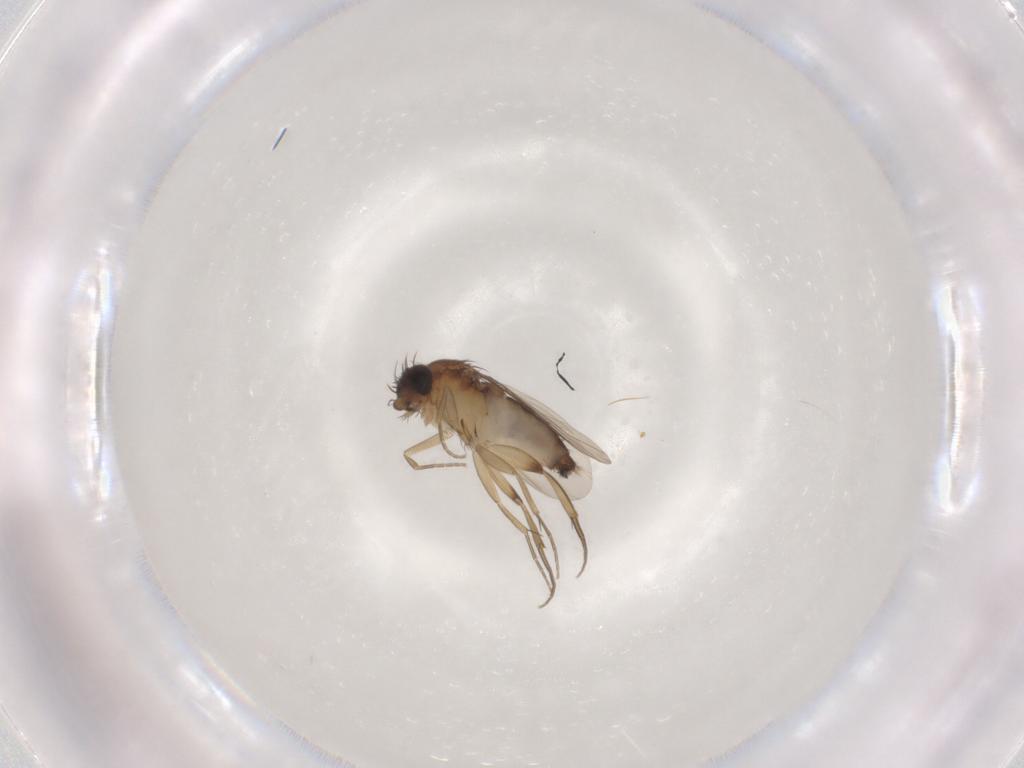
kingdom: Animalia
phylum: Arthropoda
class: Insecta
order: Diptera
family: Phoridae
